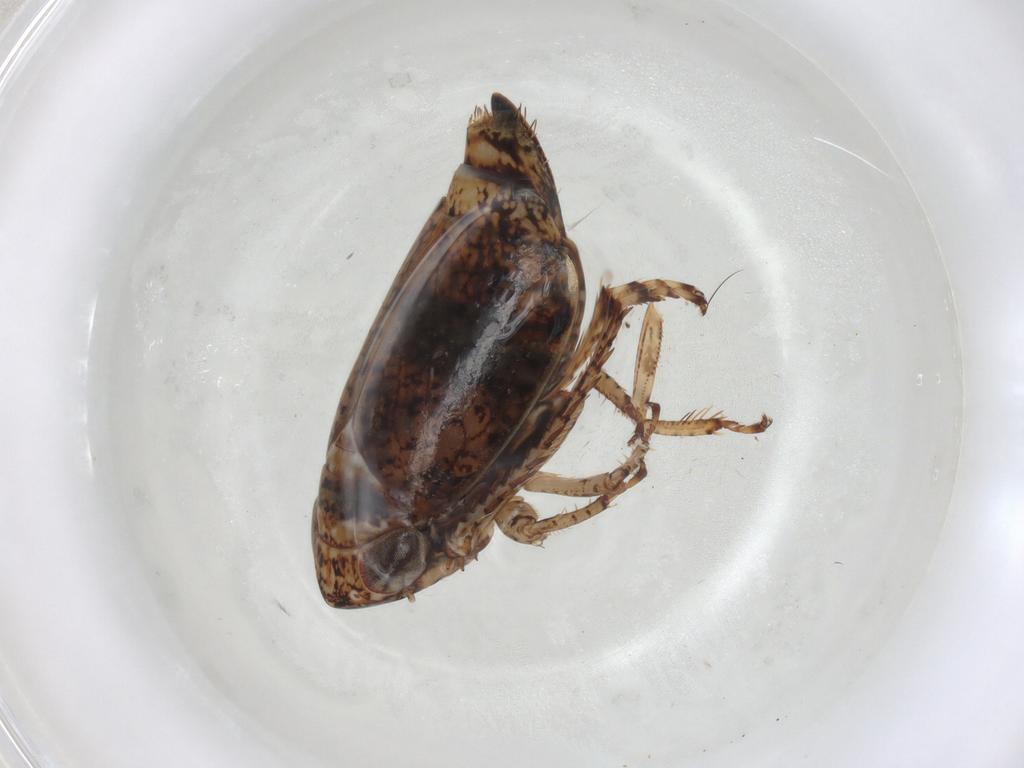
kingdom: Animalia
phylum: Arthropoda
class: Insecta
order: Hemiptera
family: Cicadellidae
